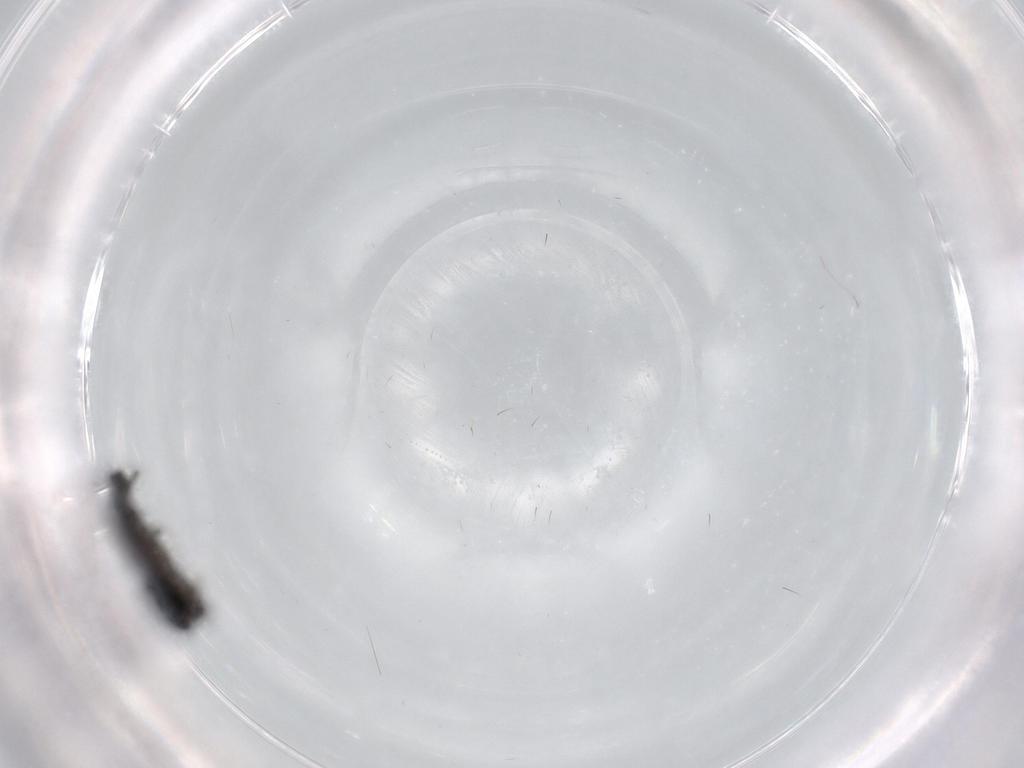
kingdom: Animalia
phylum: Arthropoda
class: Insecta
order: Diptera
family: Chironomidae
